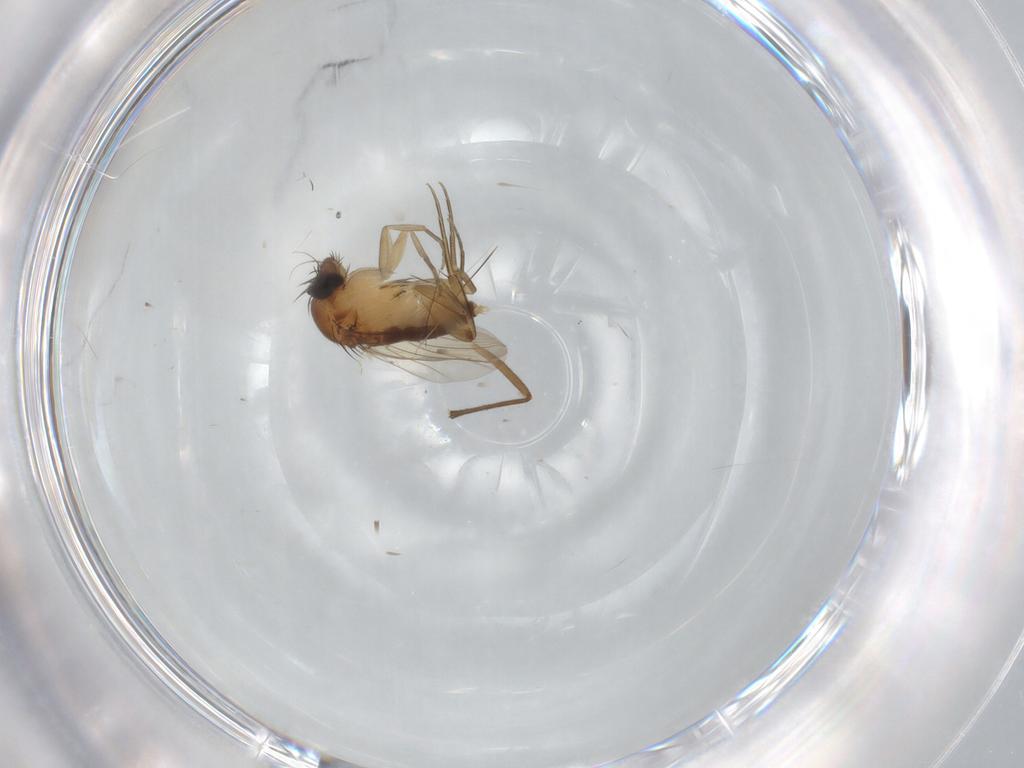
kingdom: Animalia
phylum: Arthropoda
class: Insecta
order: Diptera
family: Phoridae
